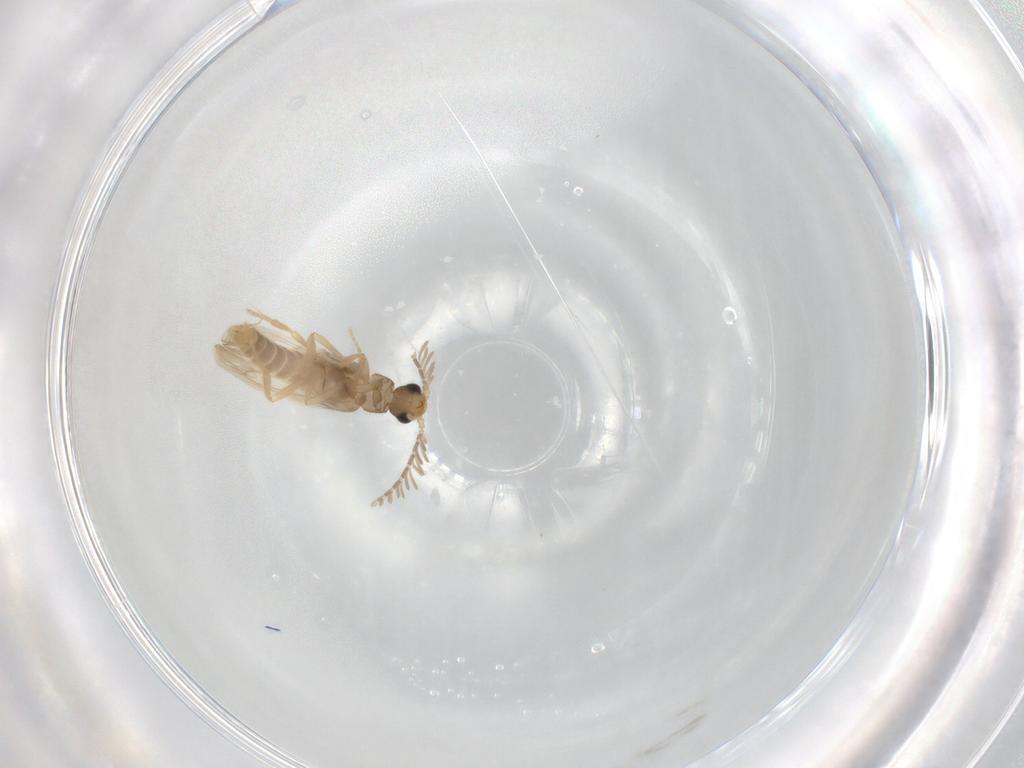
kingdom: Animalia
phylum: Arthropoda
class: Insecta
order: Coleoptera
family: Phengodidae
